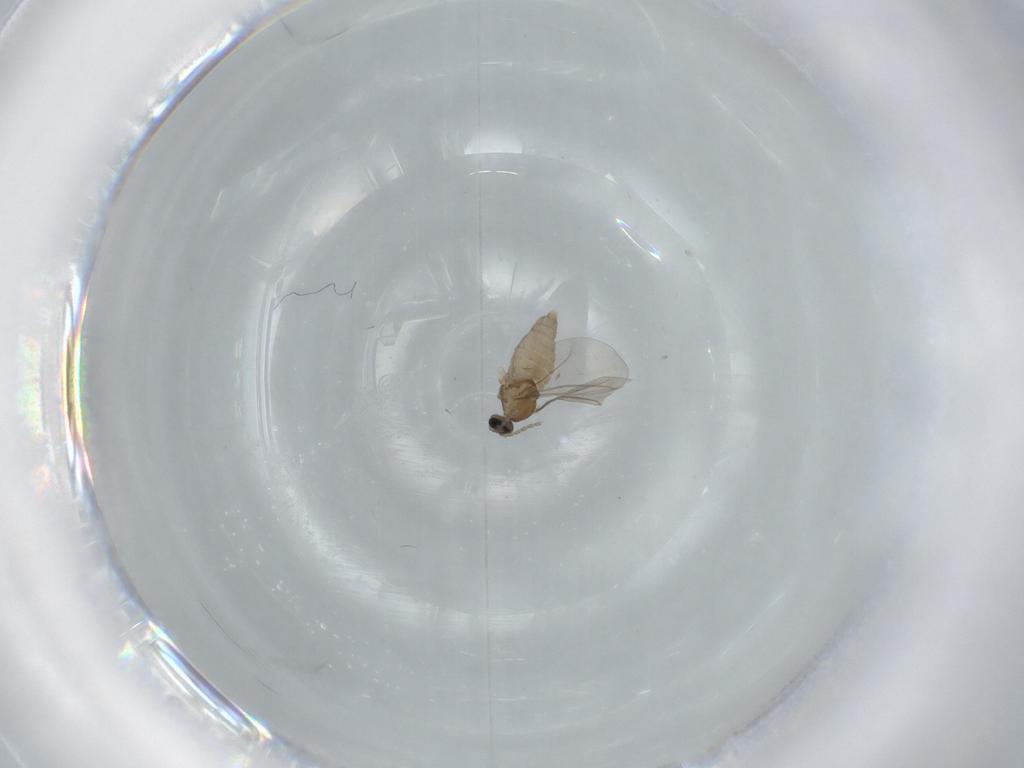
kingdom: Animalia
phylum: Arthropoda
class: Insecta
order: Diptera
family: Cecidomyiidae
